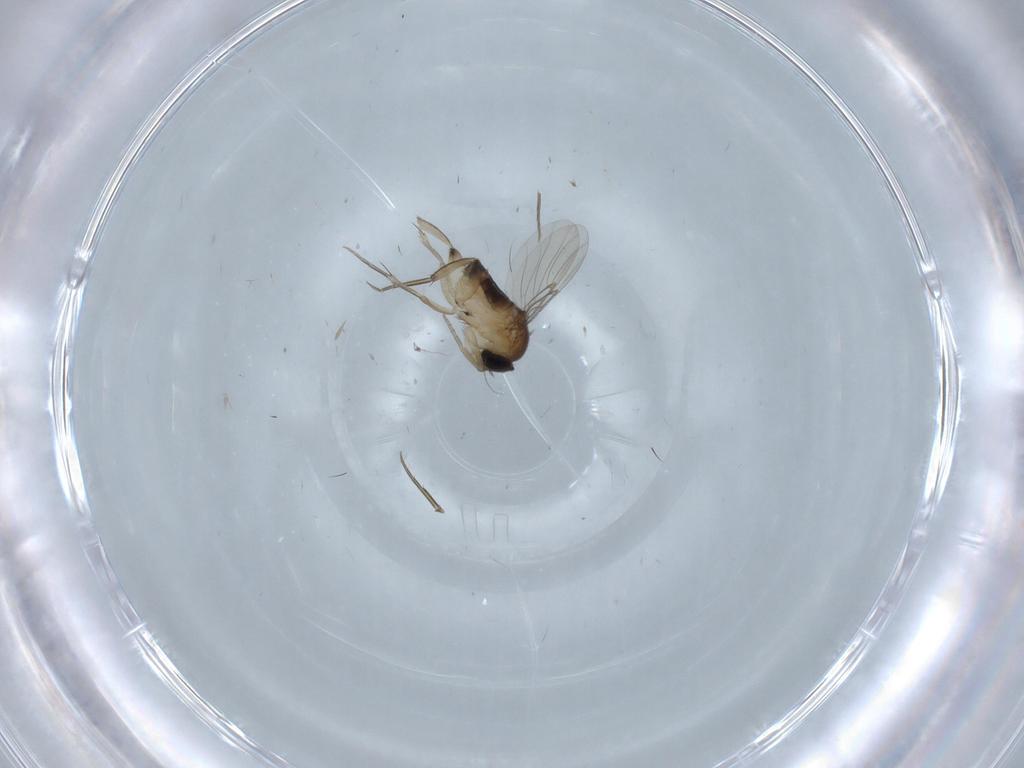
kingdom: Animalia
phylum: Arthropoda
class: Insecta
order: Diptera
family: Phoridae
